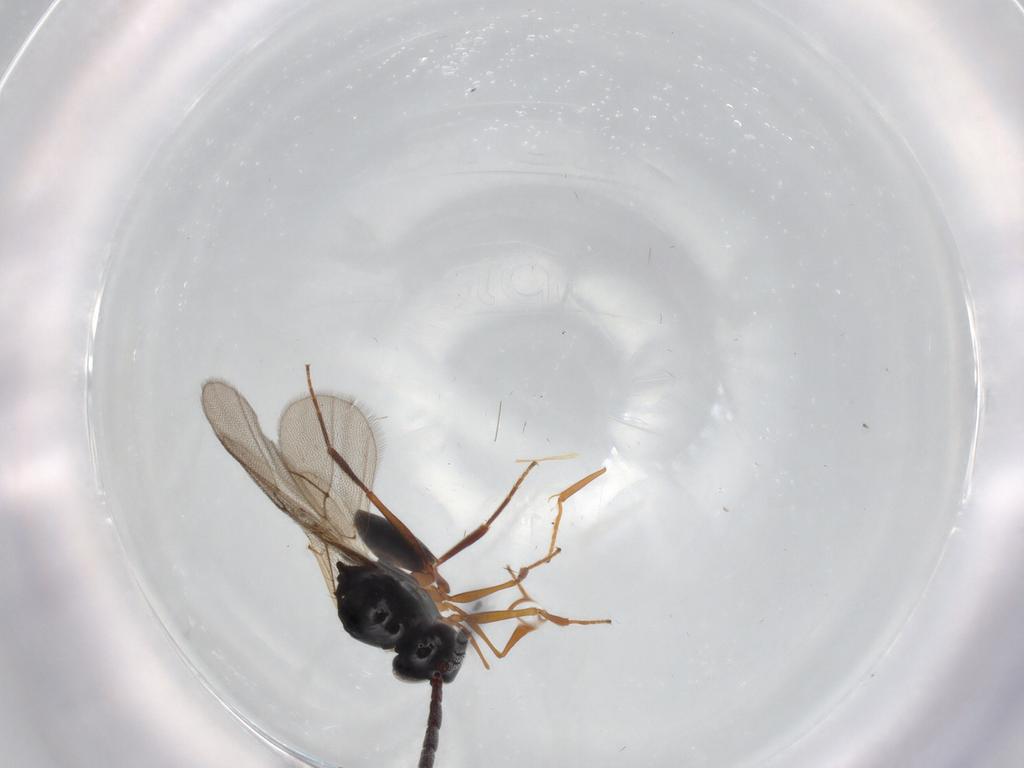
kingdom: Animalia
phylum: Arthropoda
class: Insecta
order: Hymenoptera
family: Figitidae
